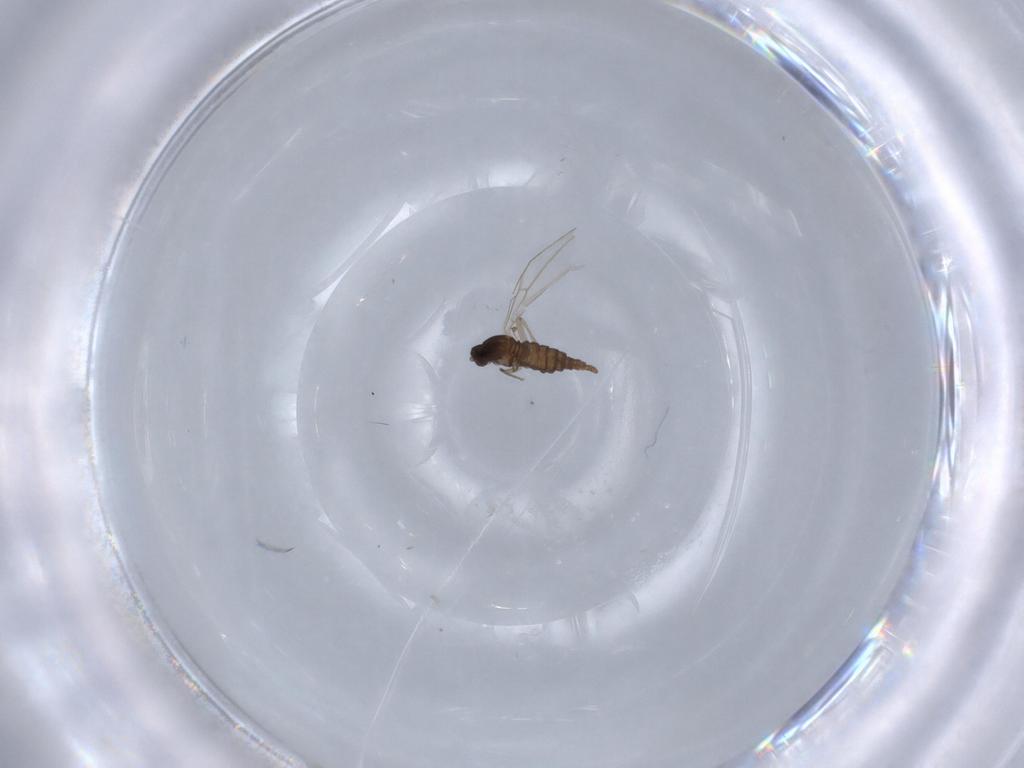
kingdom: Animalia
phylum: Arthropoda
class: Insecta
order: Diptera
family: Cecidomyiidae
